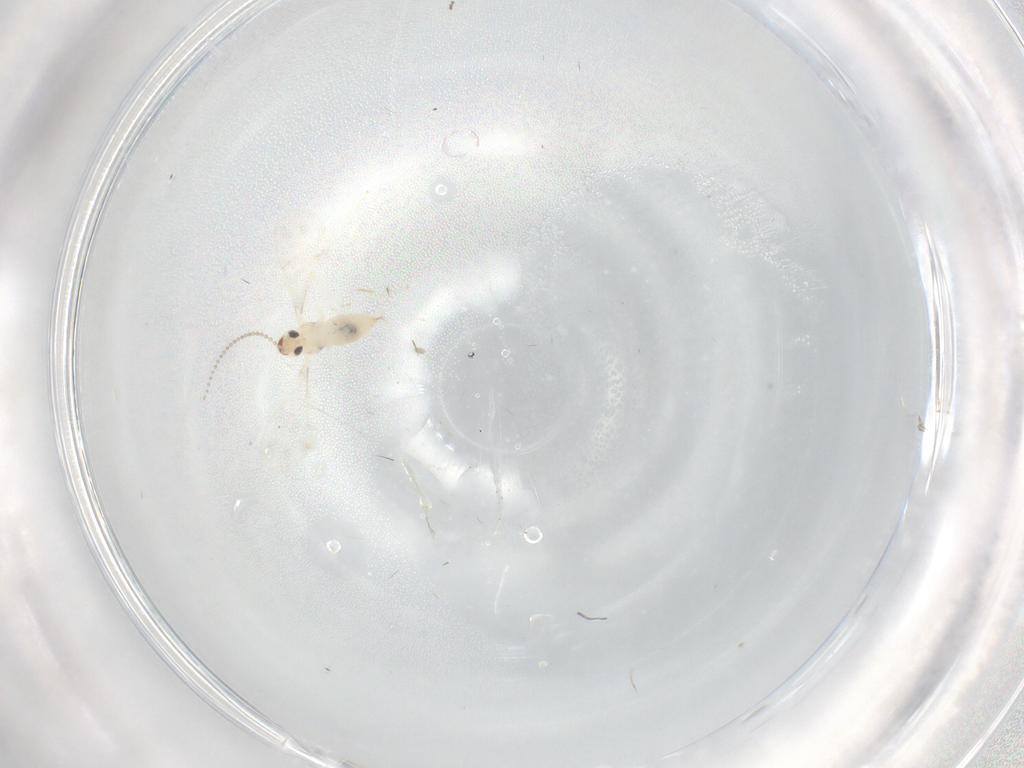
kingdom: Animalia
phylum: Arthropoda
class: Insecta
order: Diptera
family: Cecidomyiidae
